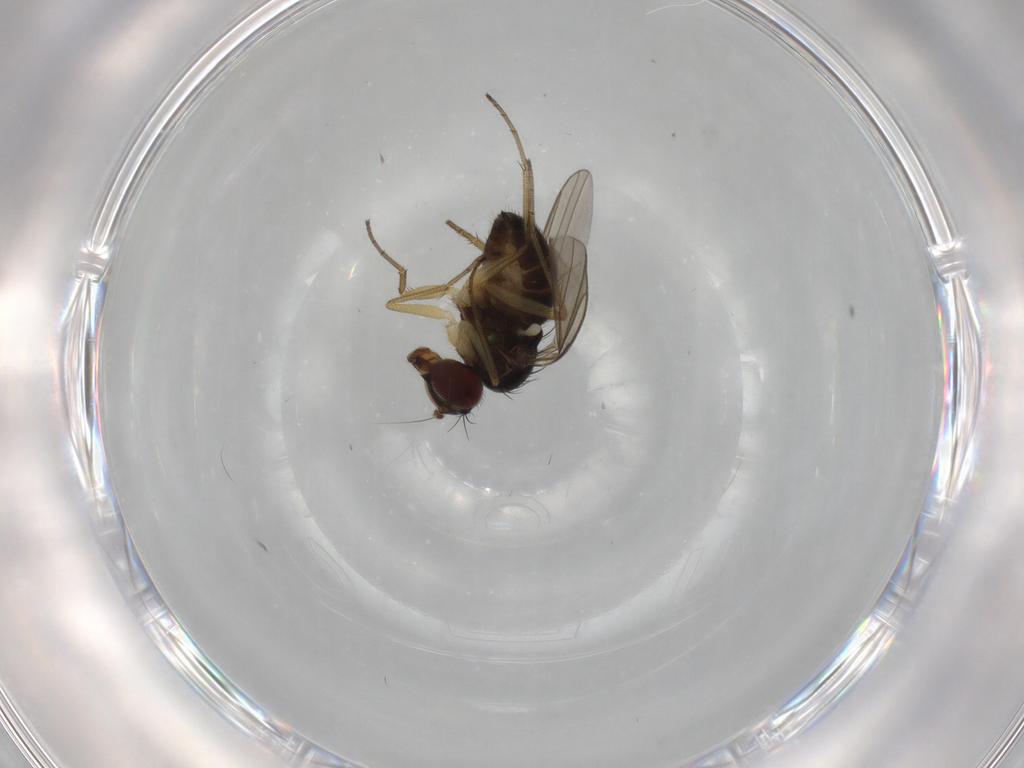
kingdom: Animalia
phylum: Arthropoda
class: Insecta
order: Diptera
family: Dolichopodidae
